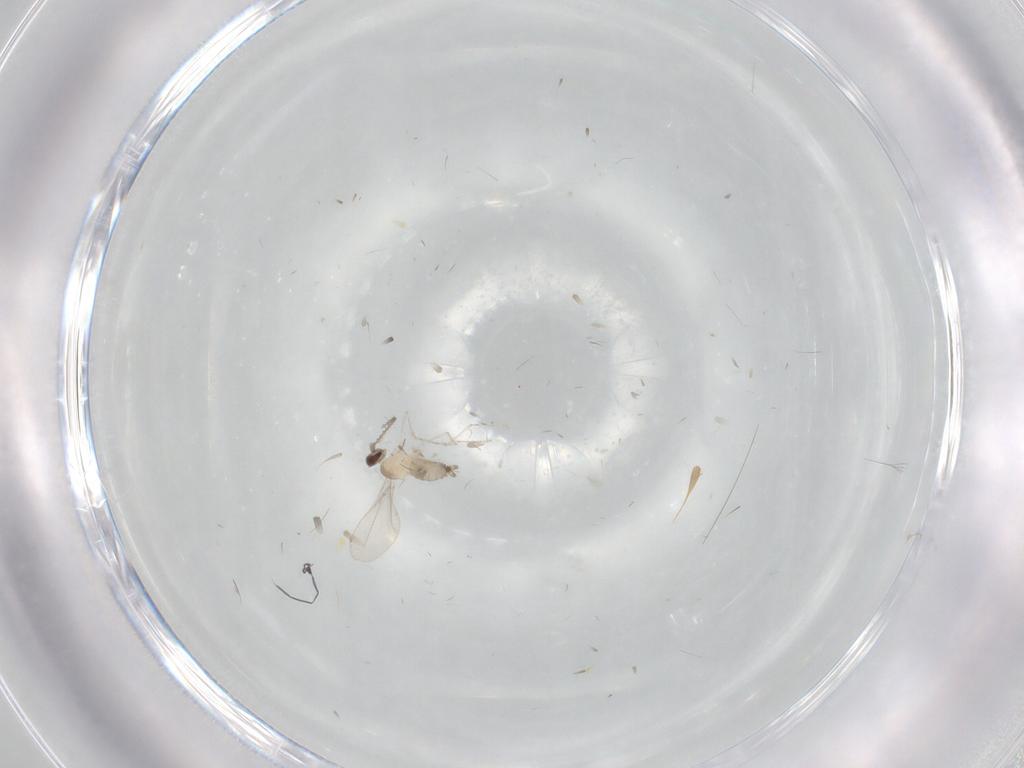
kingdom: Animalia
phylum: Arthropoda
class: Insecta
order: Diptera
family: Cecidomyiidae
